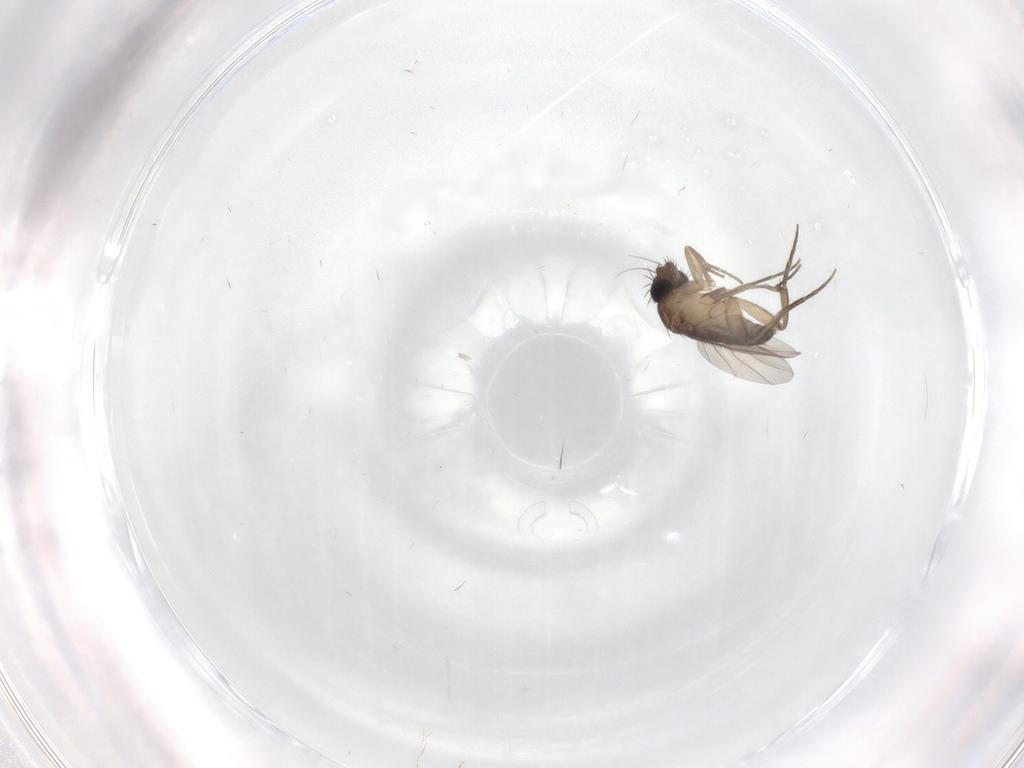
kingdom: Animalia
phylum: Arthropoda
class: Insecta
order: Diptera
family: Phoridae
